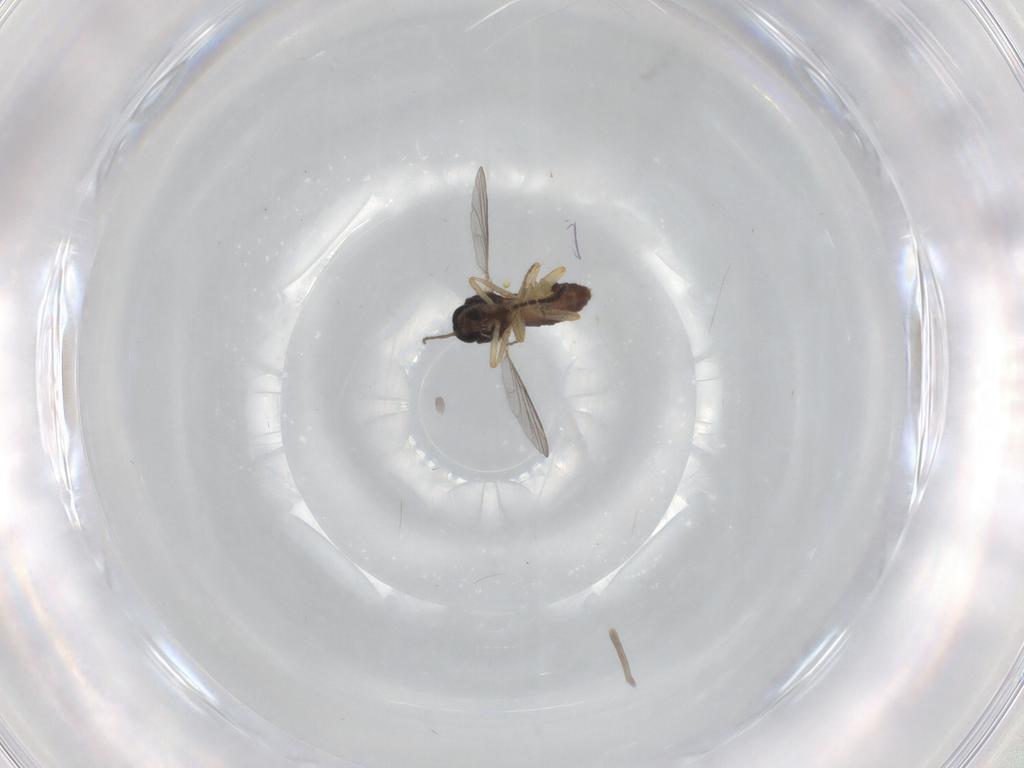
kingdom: Animalia
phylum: Arthropoda
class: Insecta
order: Diptera
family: Ceratopogonidae
